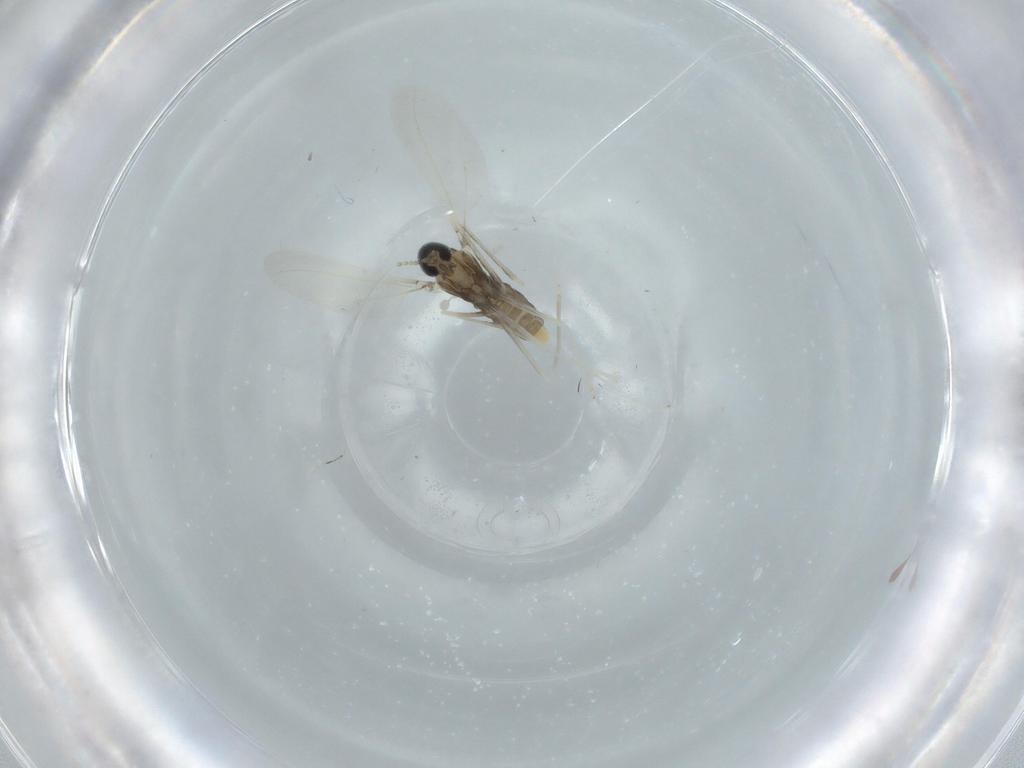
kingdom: Animalia
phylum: Arthropoda
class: Insecta
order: Diptera
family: Cecidomyiidae
